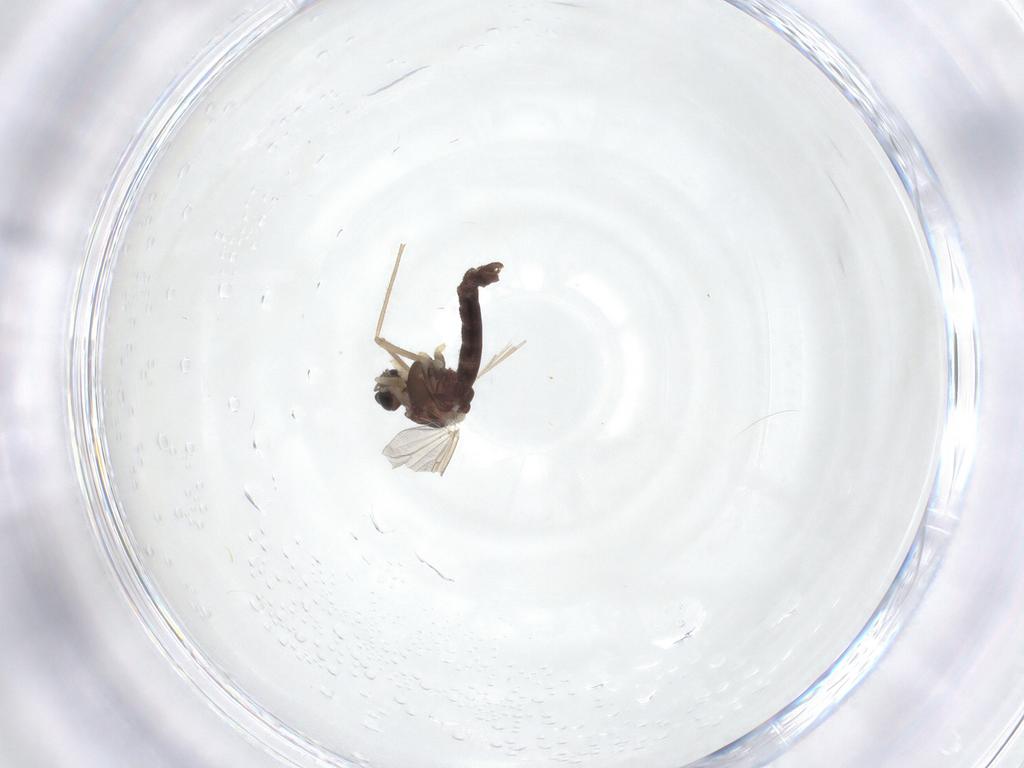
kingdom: Animalia
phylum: Arthropoda
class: Insecta
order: Diptera
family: Chironomidae
